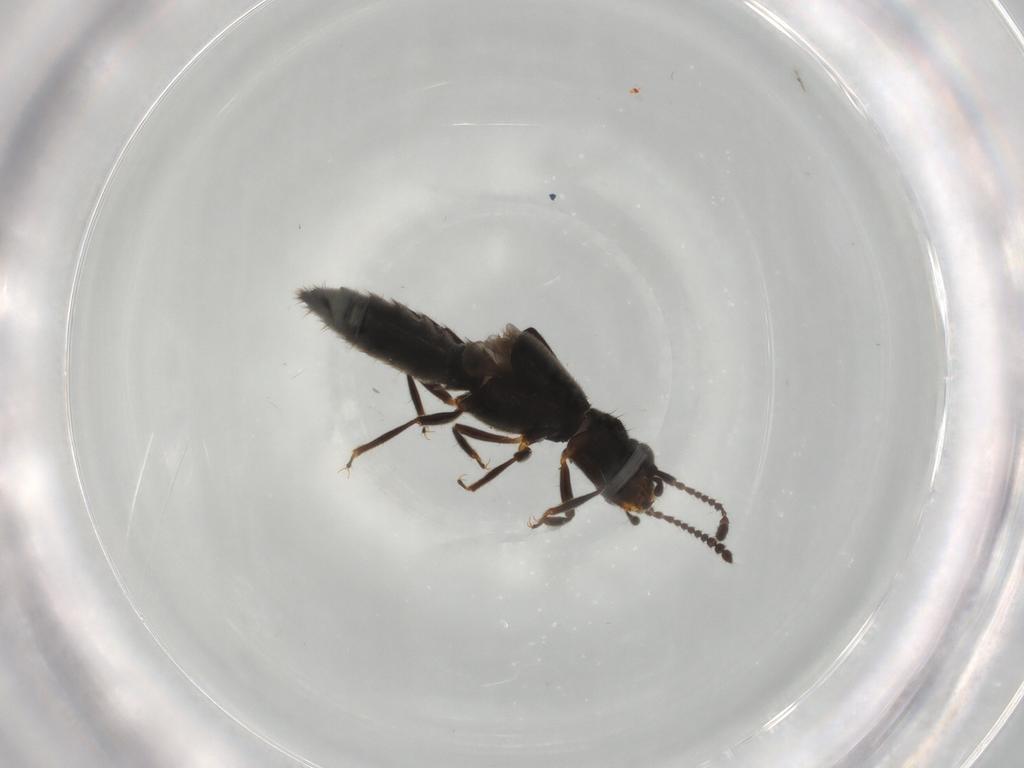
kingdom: Animalia
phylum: Arthropoda
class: Insecta
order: Coleoptera
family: Staphylinidae
